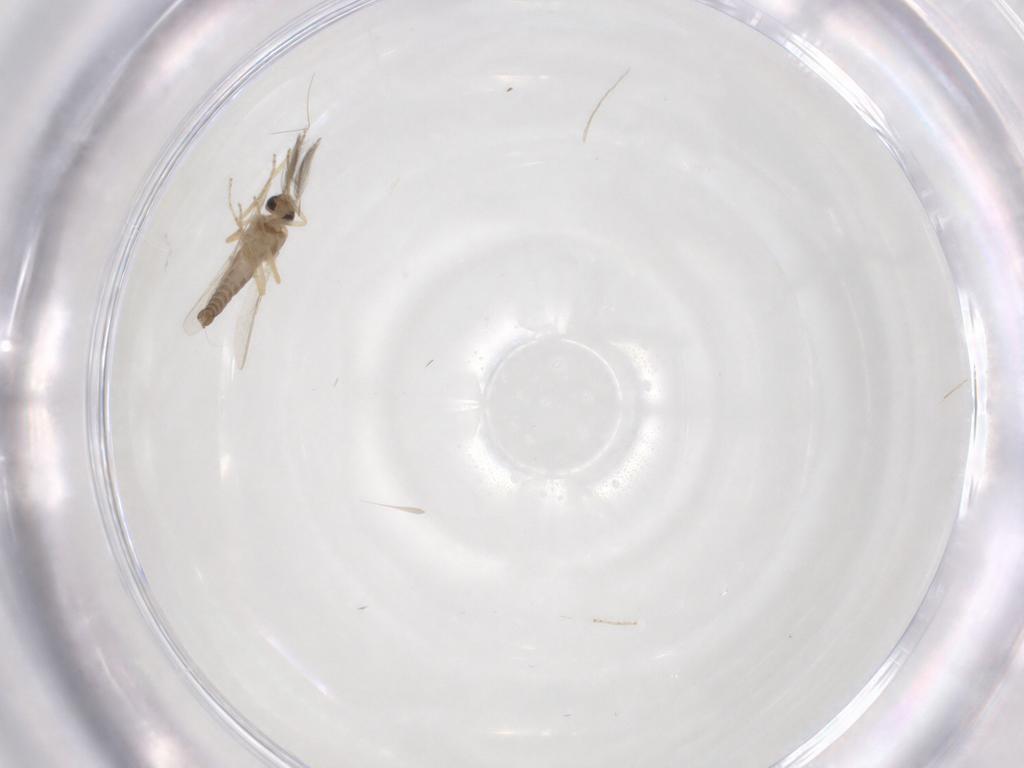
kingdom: Animalia
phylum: Arthropoda
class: Insecta
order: Diptera
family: Ceratopogonidae
